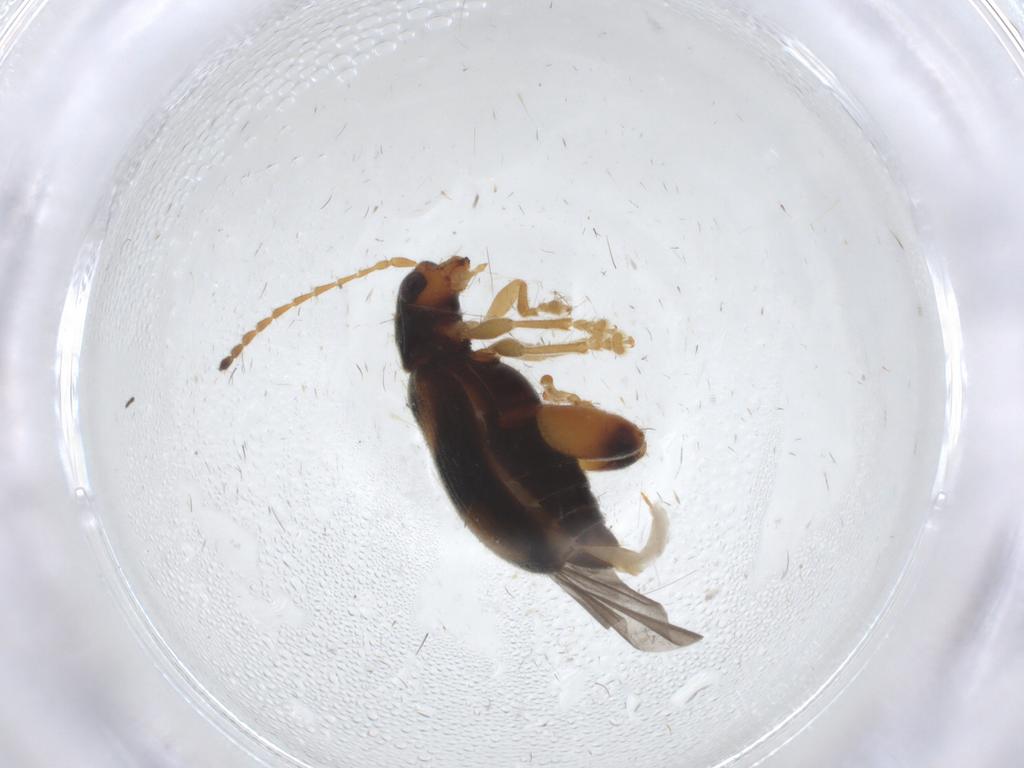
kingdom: Animalia
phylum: Arthropoda
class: Insecta
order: Coleoptera
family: Chrysomelidae
